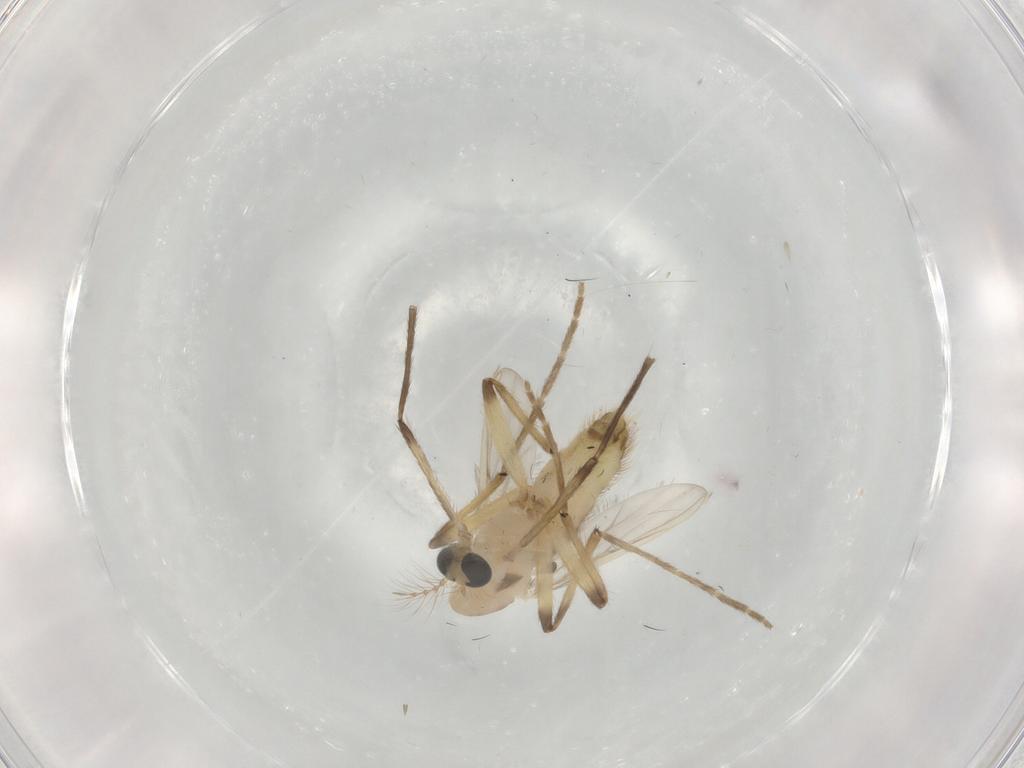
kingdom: Animalia
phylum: Arthropoda
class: Insecta
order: Diptera
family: Chironomidae
